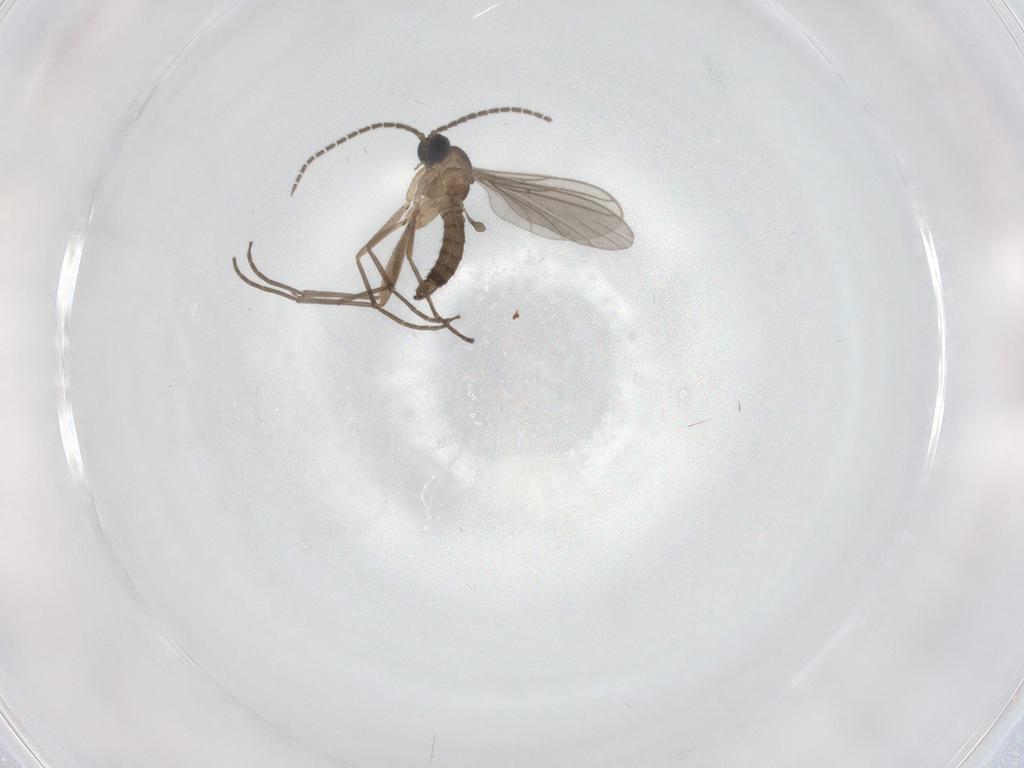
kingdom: Animalia
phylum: Arthropoda
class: Insecta
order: Diptera
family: Sciaridae
